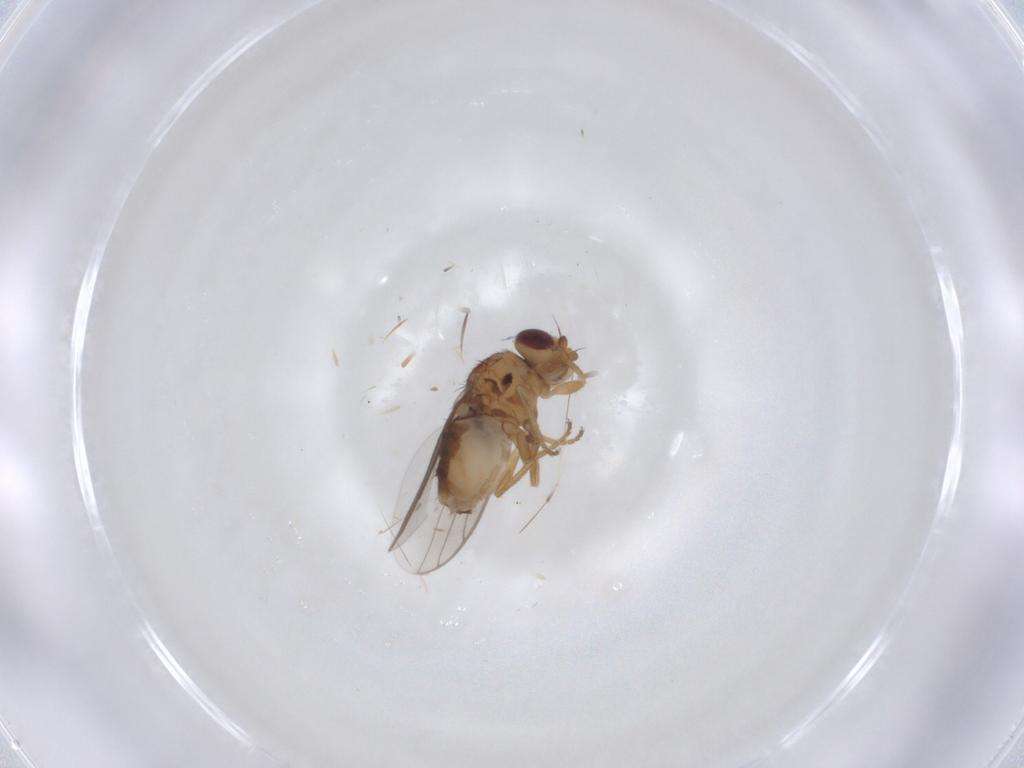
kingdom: Animalia
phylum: Arthropoda
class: Insecta
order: Diptera
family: Chloropidae
